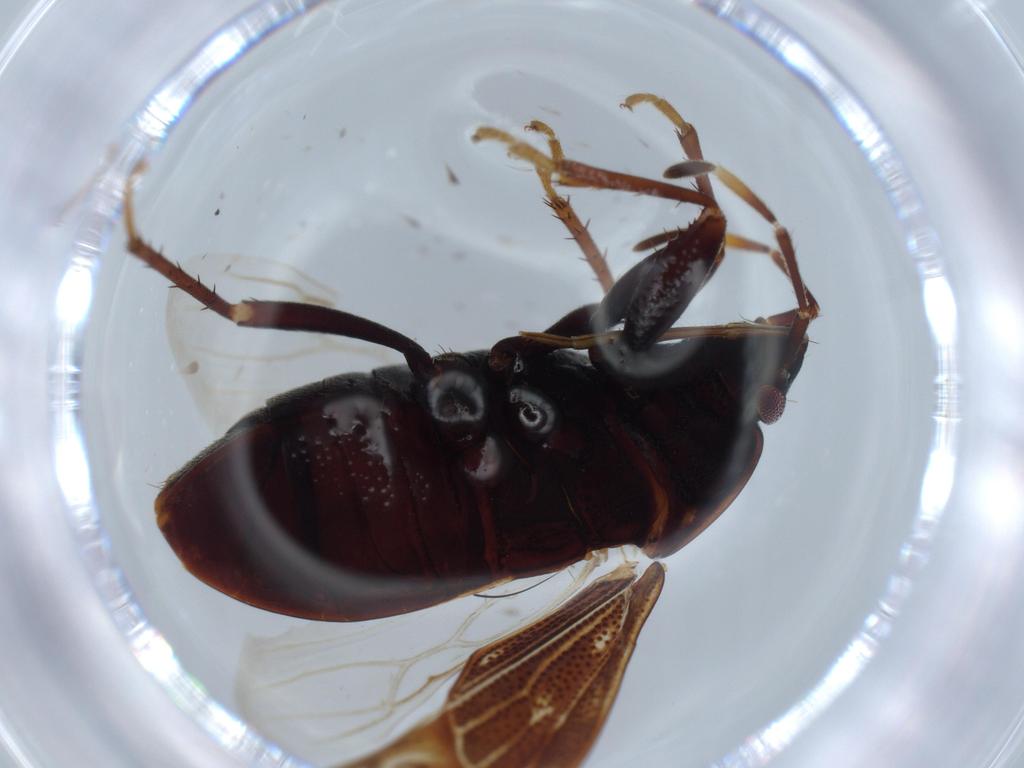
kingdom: Animalia
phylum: Arthropoda
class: Insecta
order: Hemiptera
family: Rhyparochromidae
